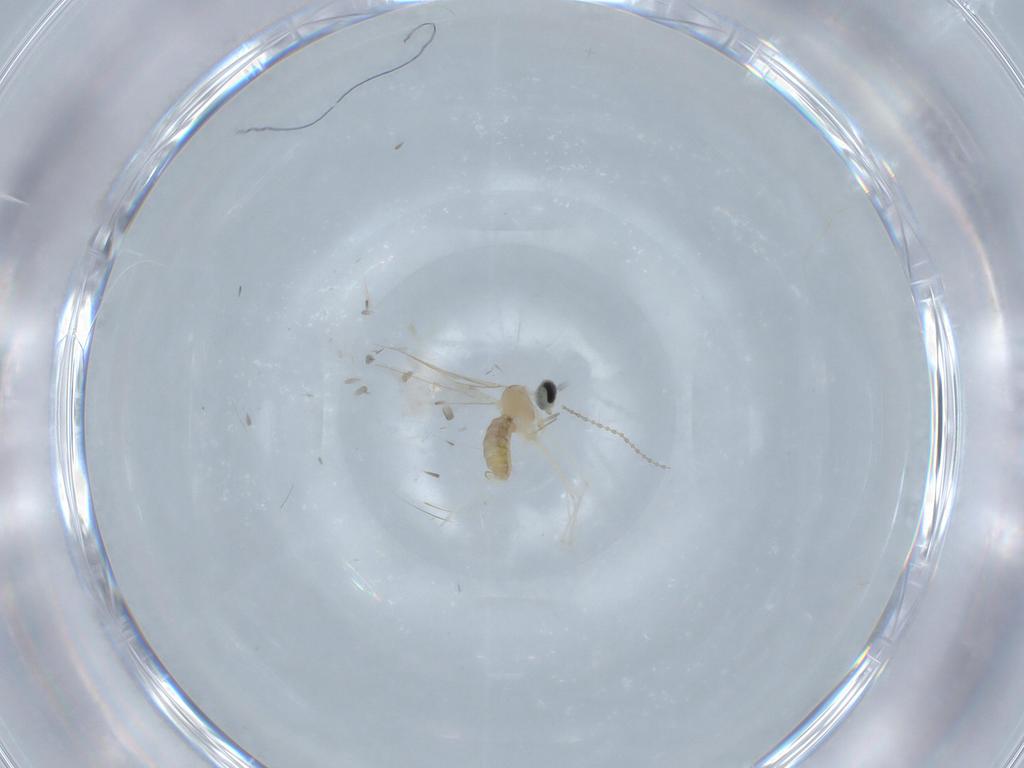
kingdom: Animalia
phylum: Arthropoda
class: Insecta
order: Diptera
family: Cecidomyiidae
